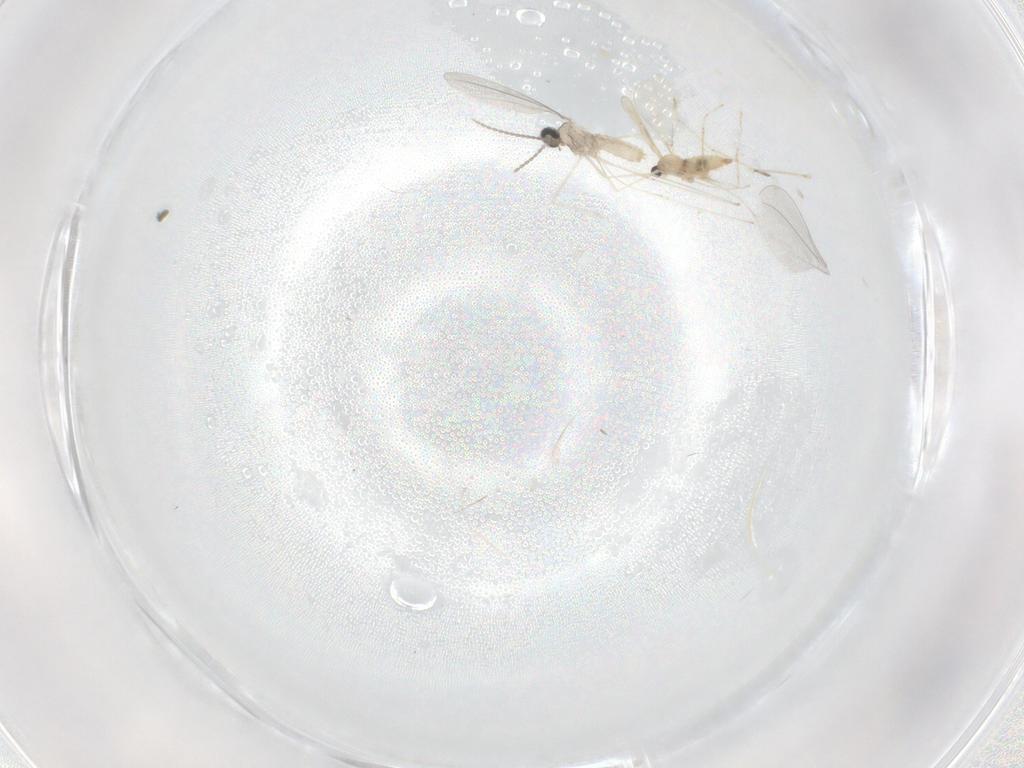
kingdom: Animalia
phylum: Arthropoda
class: Insecta
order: Diptera
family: Cecidomyiidae
